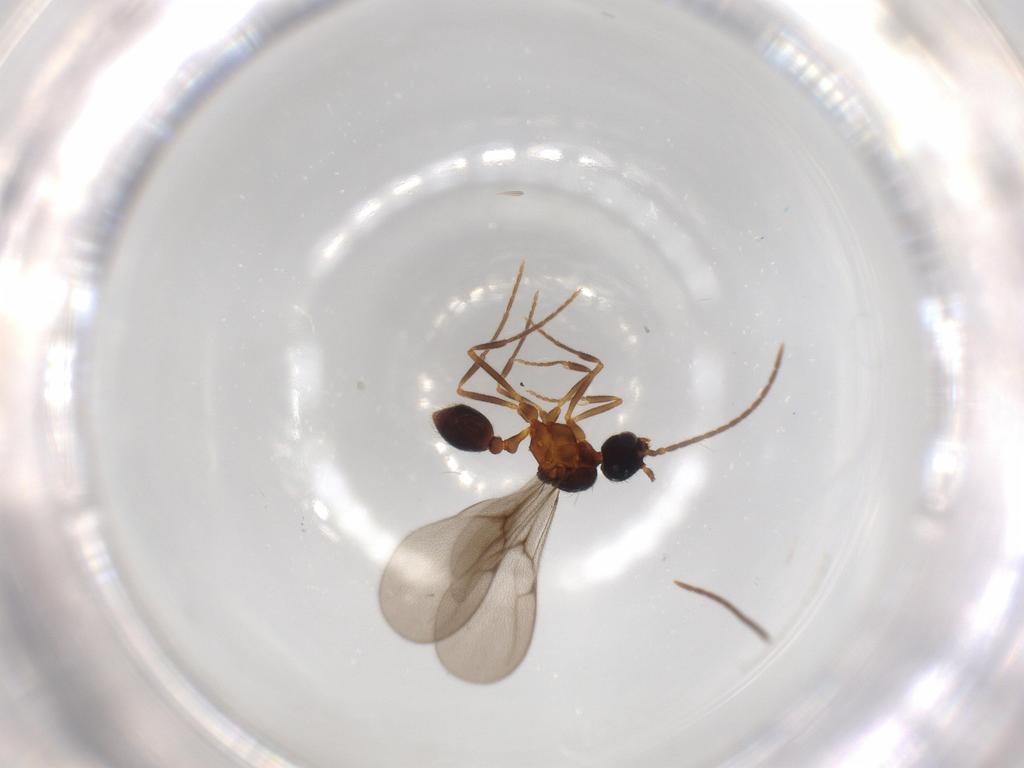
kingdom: Animalia
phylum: Arthropoda
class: Insecta
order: Hymenoptera
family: Formicidae
